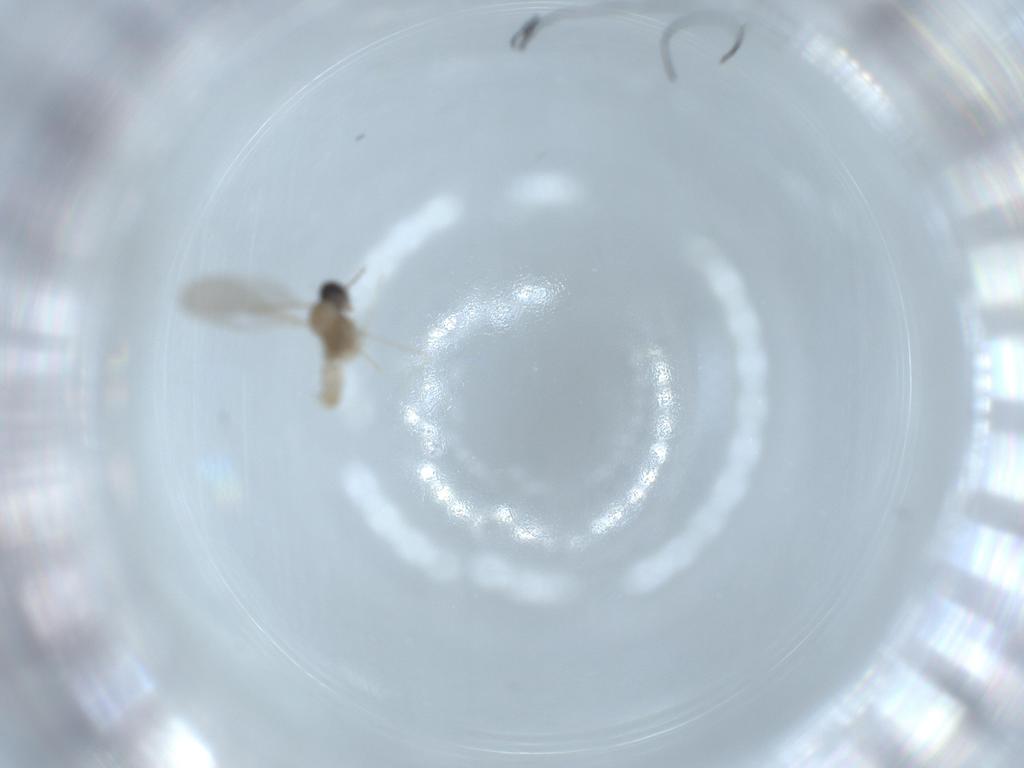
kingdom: Animalia
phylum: Arthropoda
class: Insecta
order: Diptera
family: Cecidomyiidae
